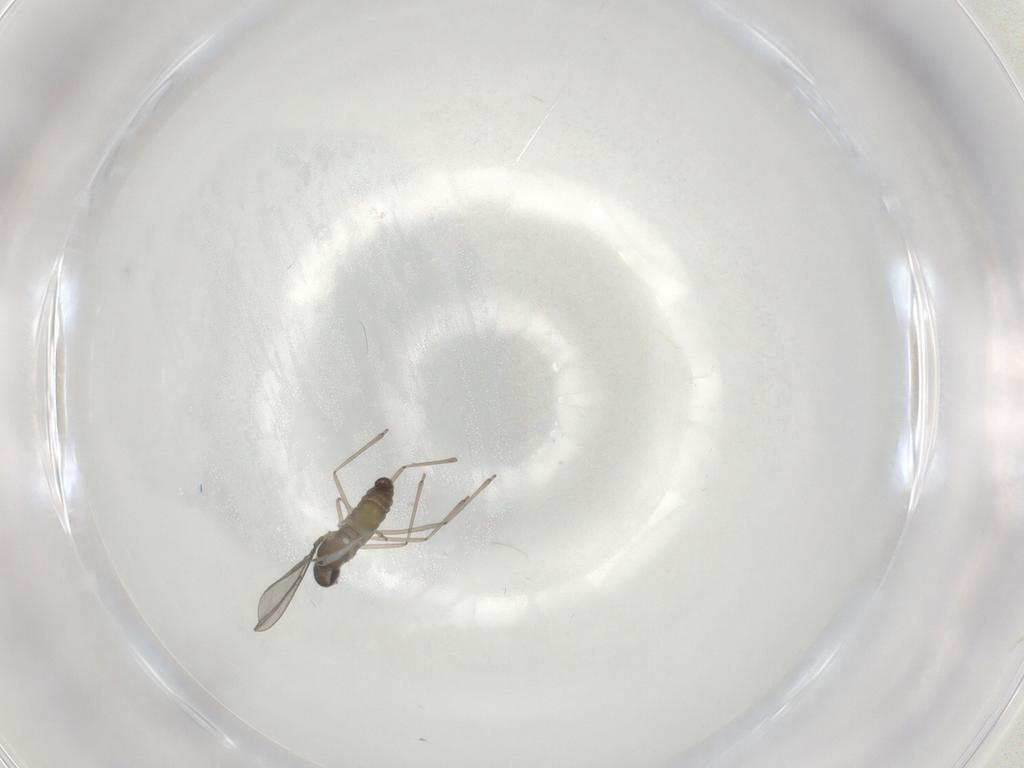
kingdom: Animalia
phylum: Arthropoda
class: Insecta
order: Diptera
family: Cecidomyiidae
